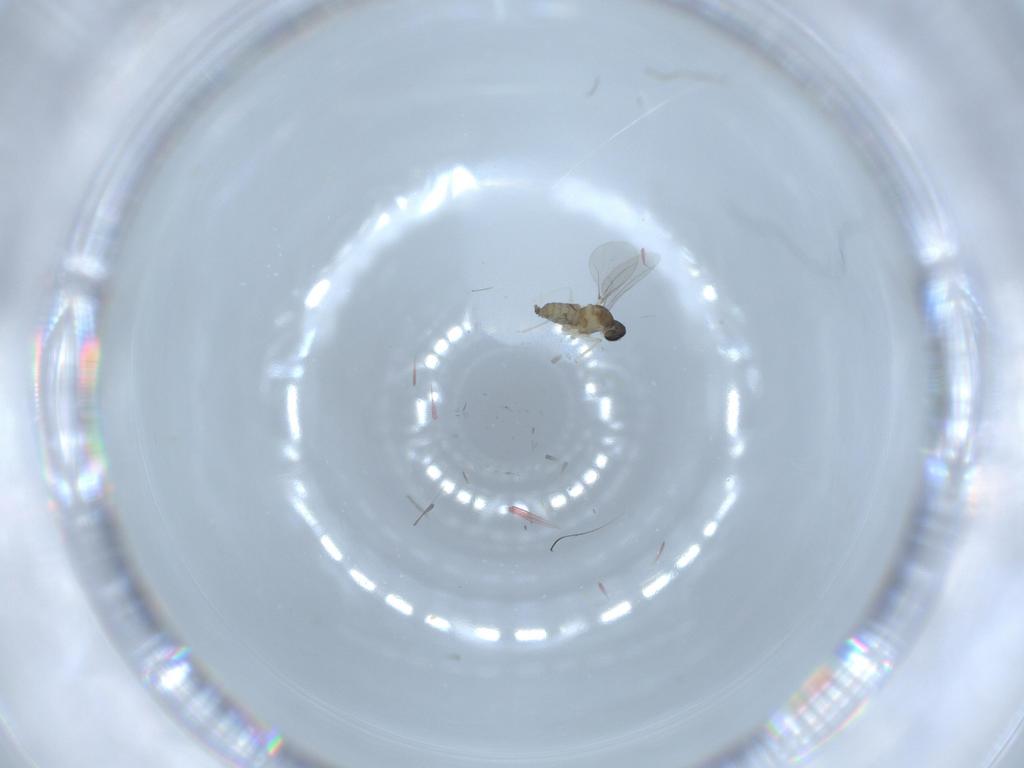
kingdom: Animalia
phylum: Arthropoda
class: Insecta
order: Diptera
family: Cecidomyiidae
